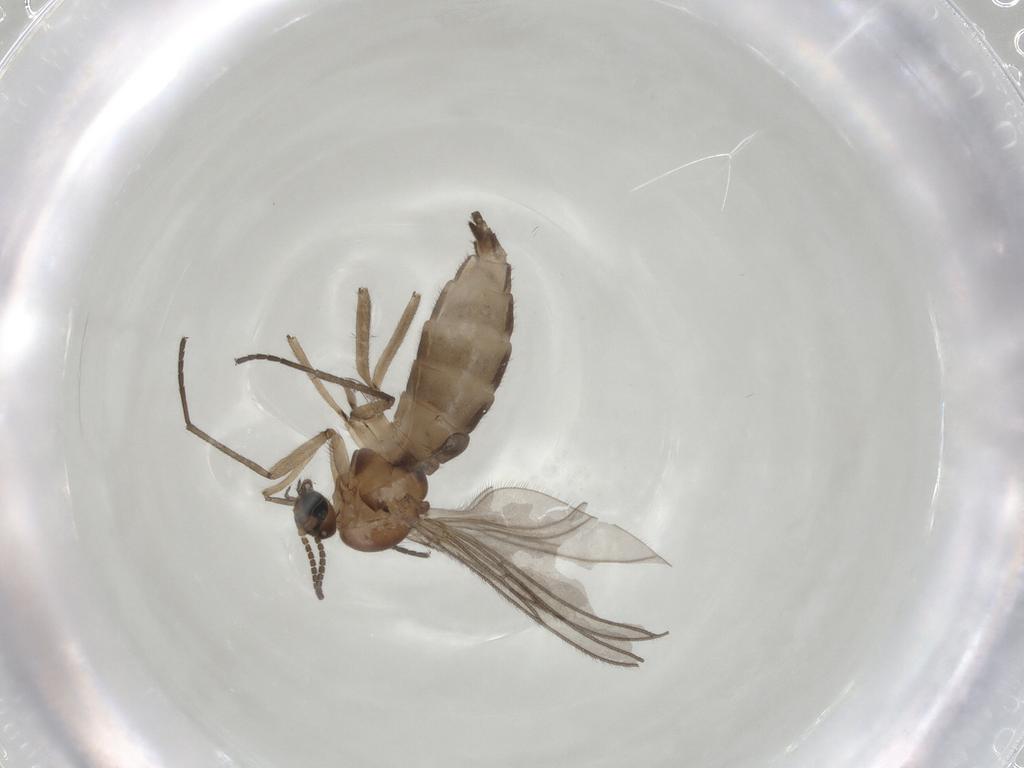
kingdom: Animalia
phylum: Arthropoda
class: Insecta
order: Diptera
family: Sciaridae
